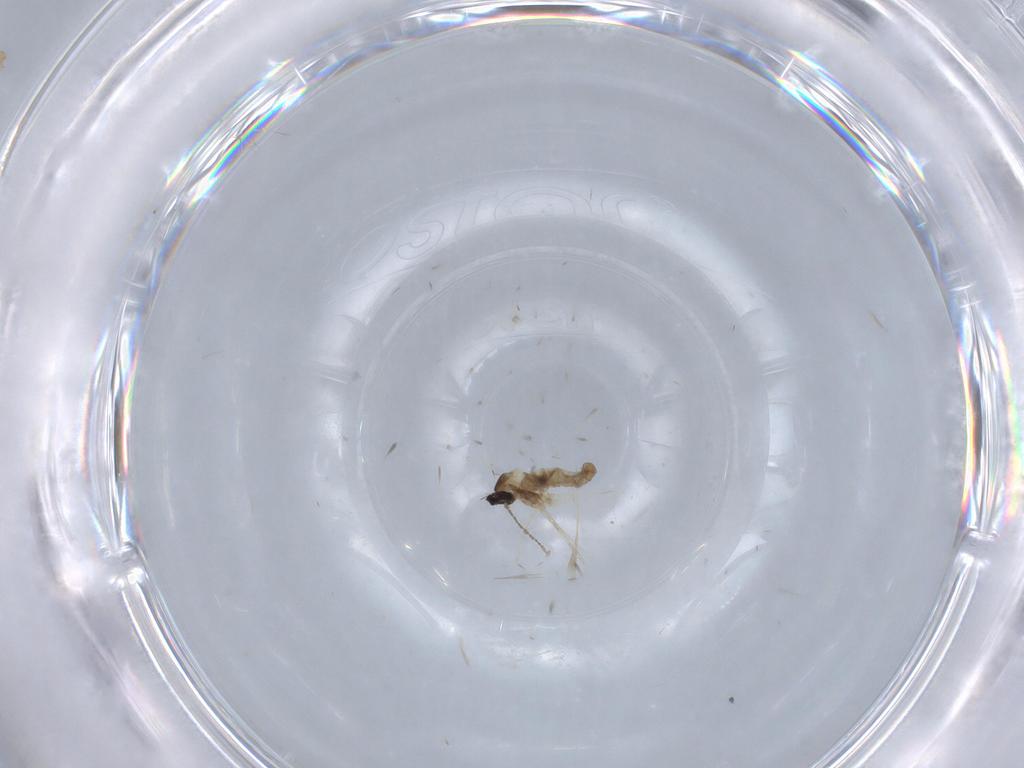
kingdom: Animalia
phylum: Arthropoda
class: Insecta
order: Diptera
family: Cecidomyiidae
